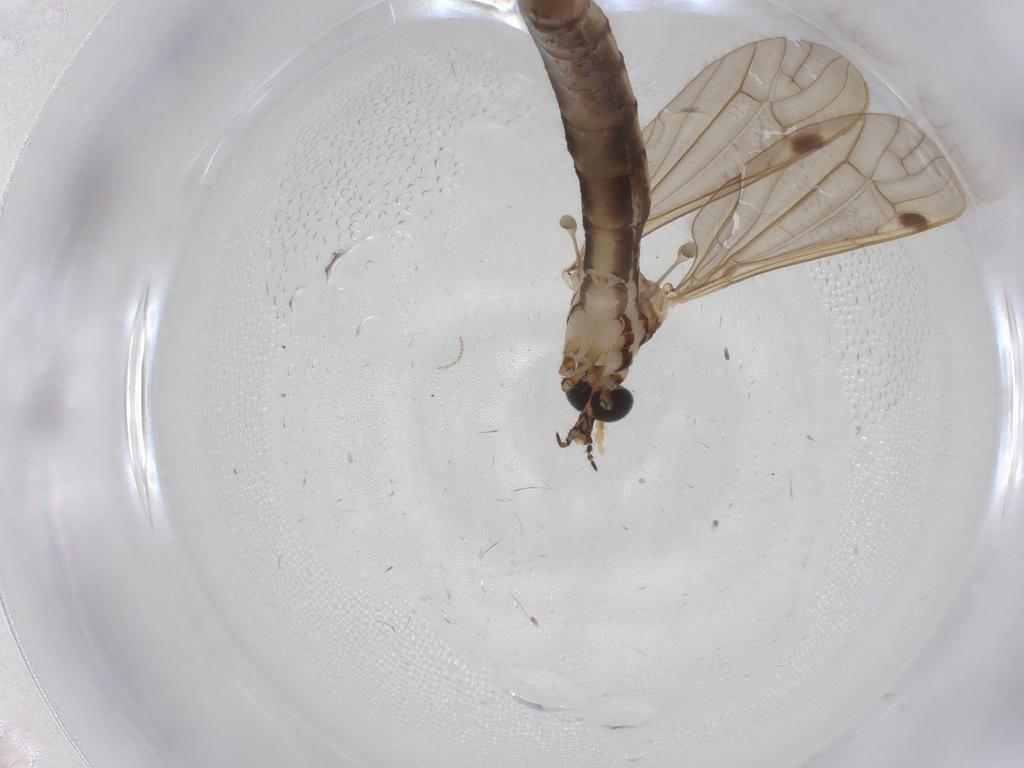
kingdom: Animalia
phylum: Arthropoda
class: Insecta
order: Diptera
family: Limoniidae
